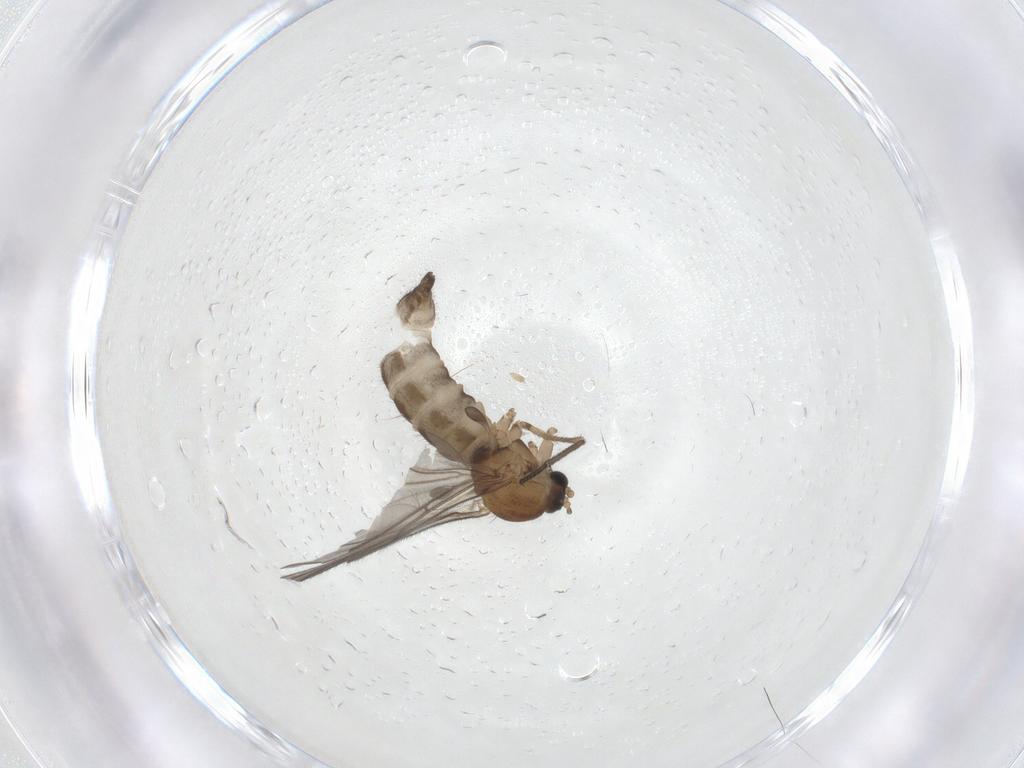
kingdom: Animalia
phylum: Arthropoda
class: Insecta
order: Diptera
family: Sciaridae
